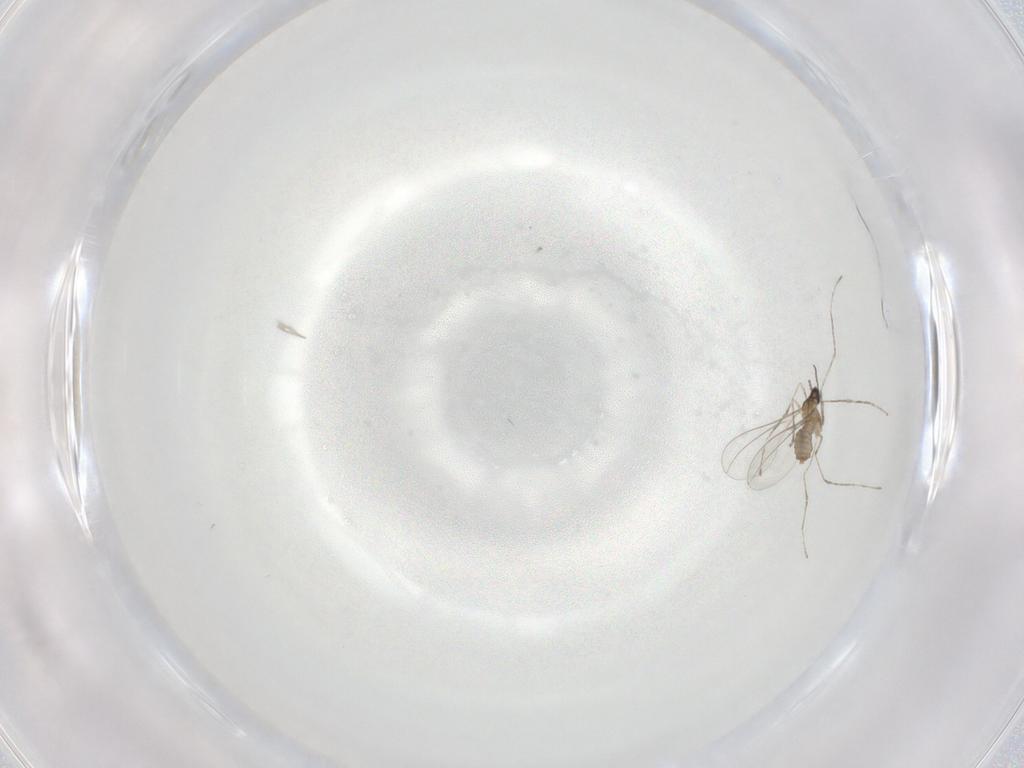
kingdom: Animalia
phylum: Arthropoda
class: Insecta
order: Diptera
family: Cecidomyiidae
